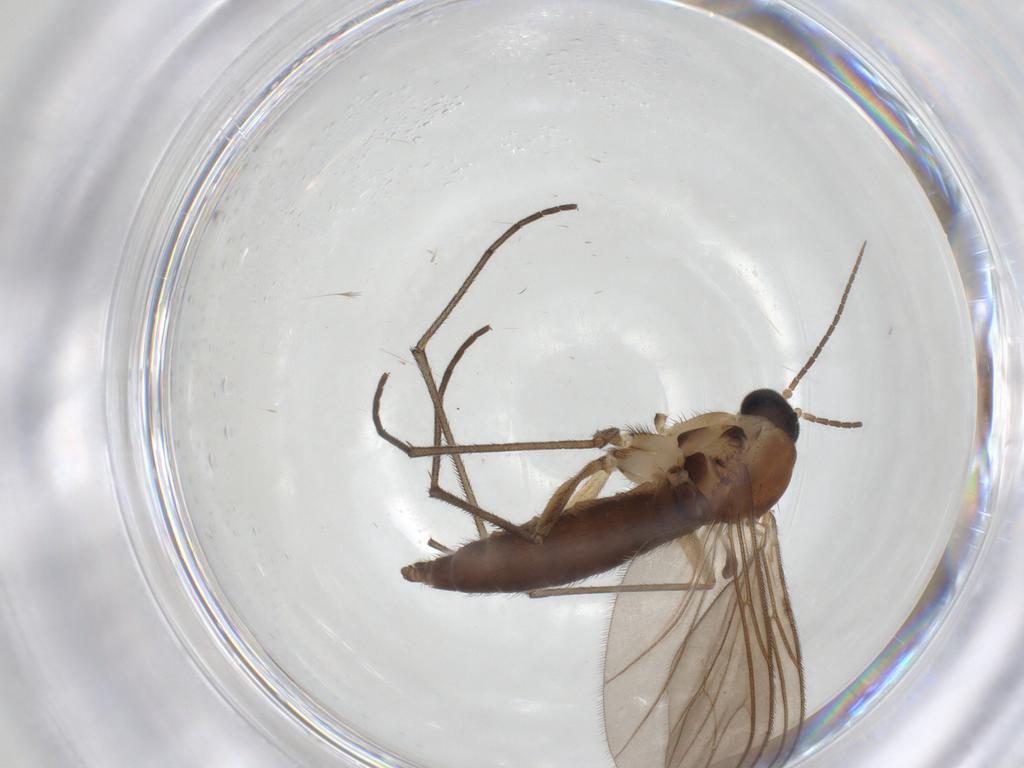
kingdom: Animalia
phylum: Arthropoda
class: Insecta
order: Diptera
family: Sciaridae
